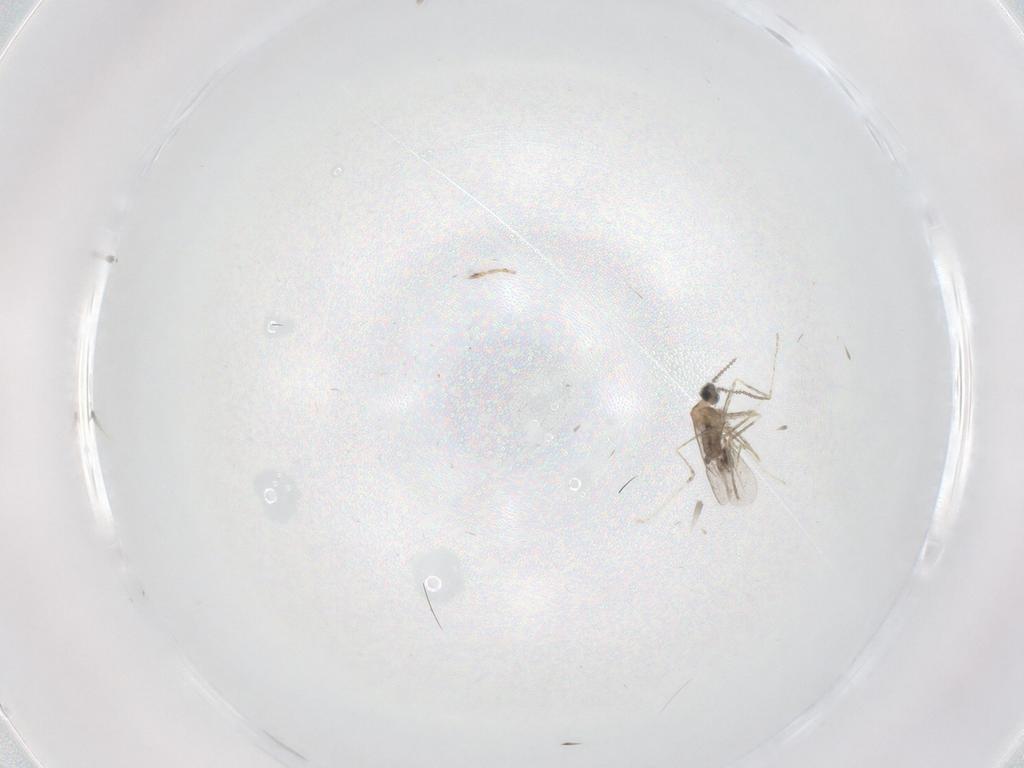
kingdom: Animalia
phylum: Arthropoda
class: Insecta
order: Diptera
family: Cecidomyiidae
